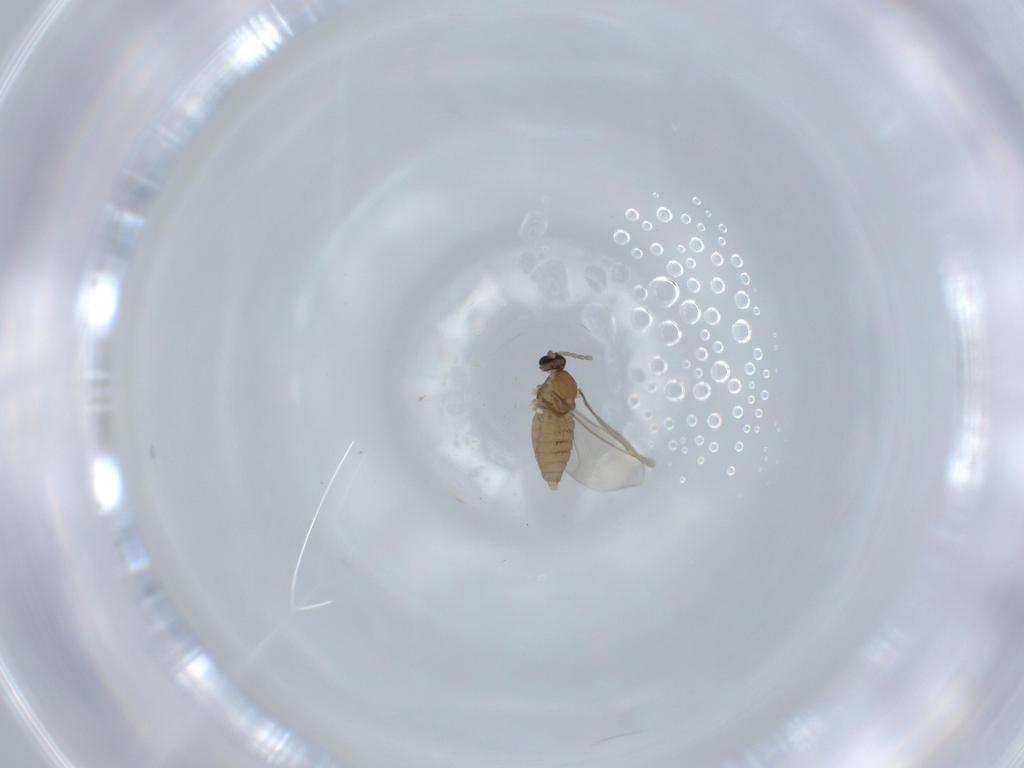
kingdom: Animalia
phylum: Arthropoda
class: Insecta
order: Diptera
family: Cecidomyiidae
